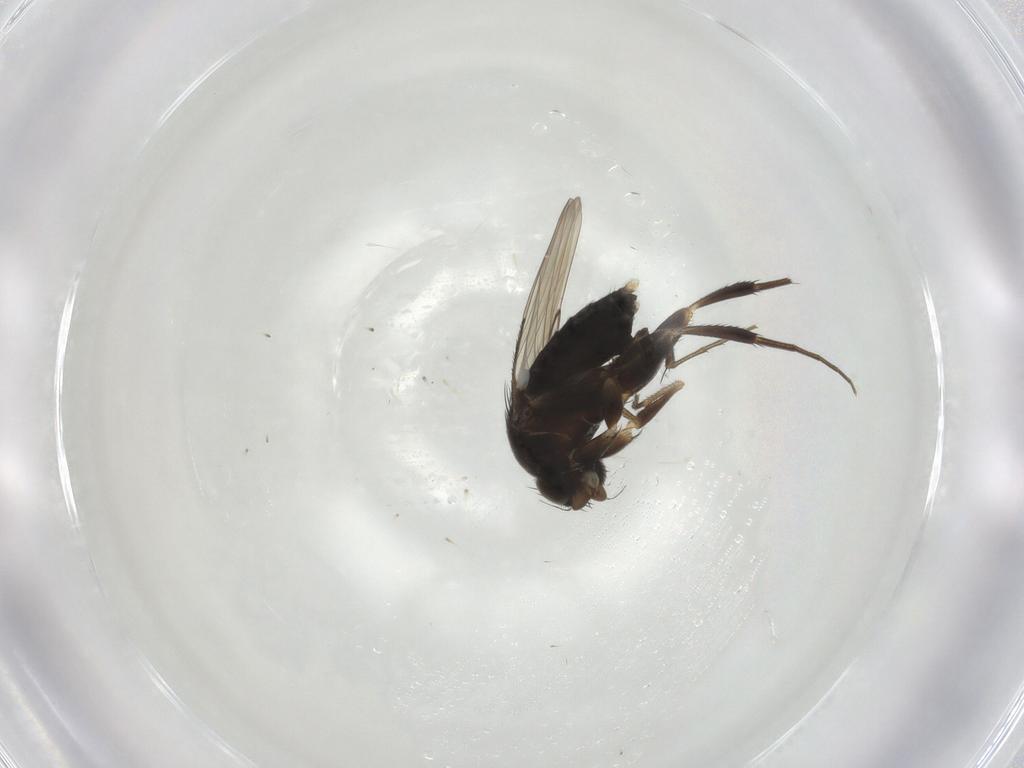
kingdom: Animalia
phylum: Arthropoda
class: Insecta
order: Diptera
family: Phoridae
